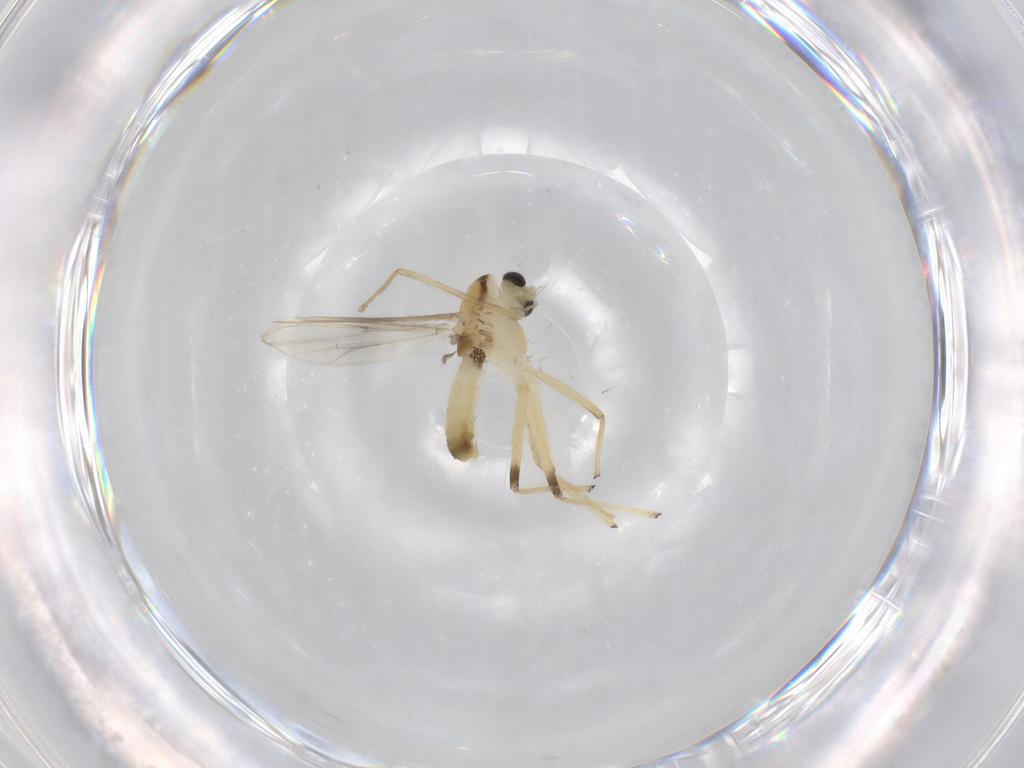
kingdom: Animalia
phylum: Arthropoda
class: Insecta
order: Diptera
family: Chironomidae
